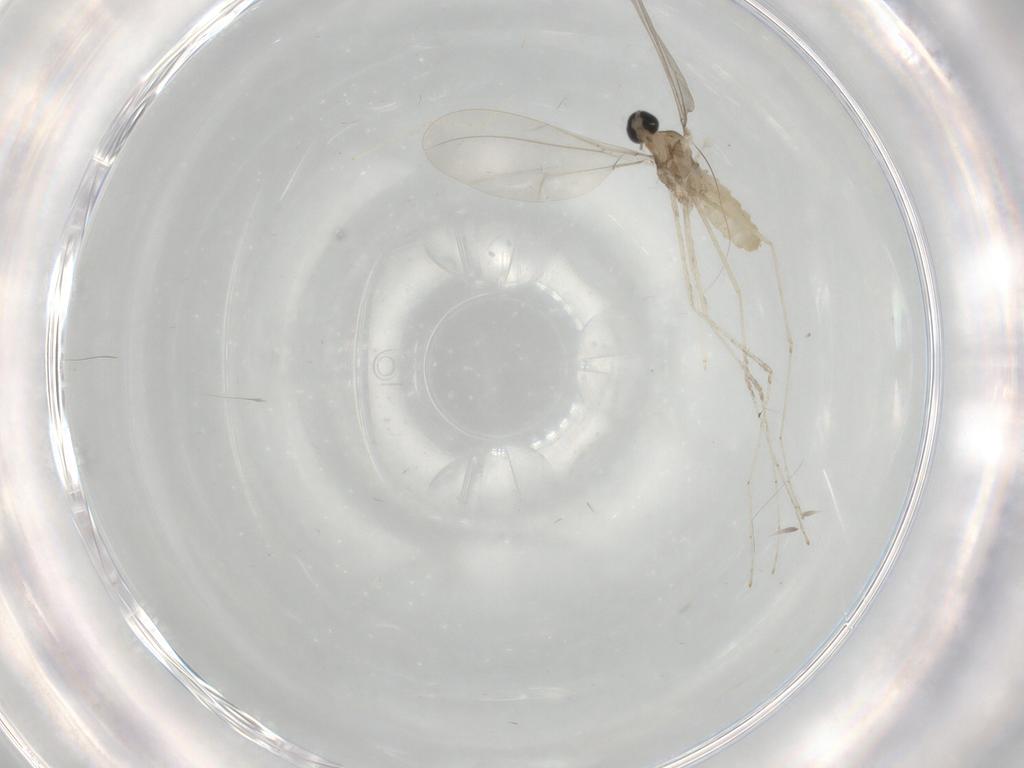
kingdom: Animalia
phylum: Arthropoda
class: Insecta
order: Diptera
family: Cecidomyiidae
